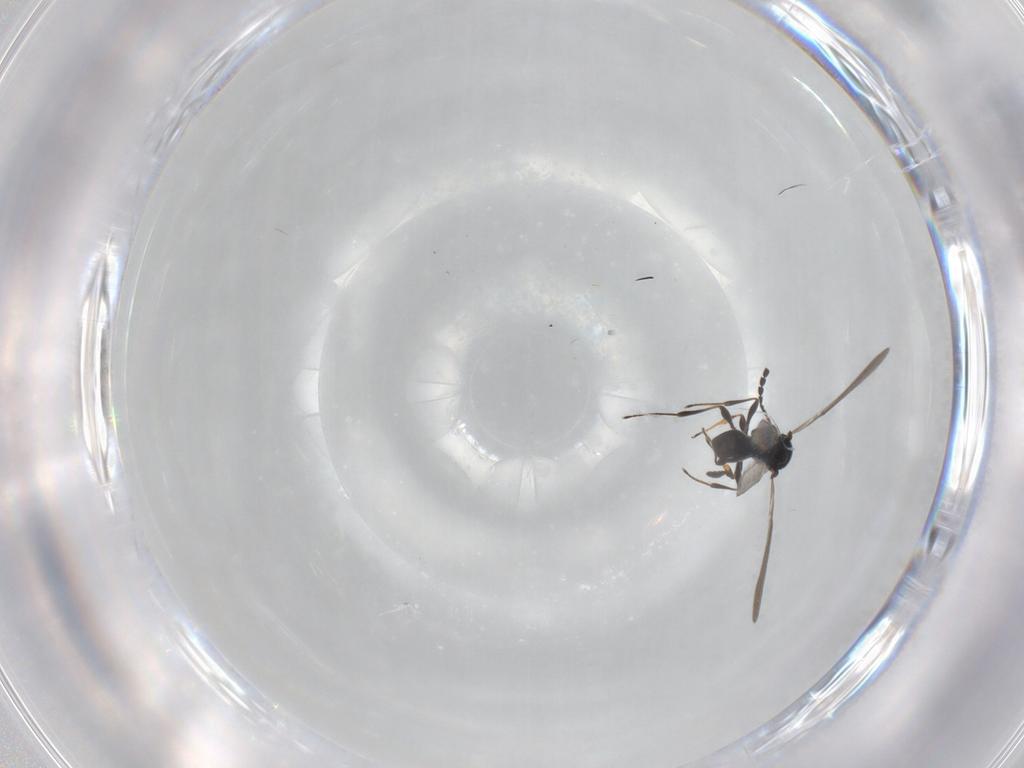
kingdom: Animalia
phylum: Arthropoda
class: Insecta
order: Hymenoptera
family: Platygastridae
